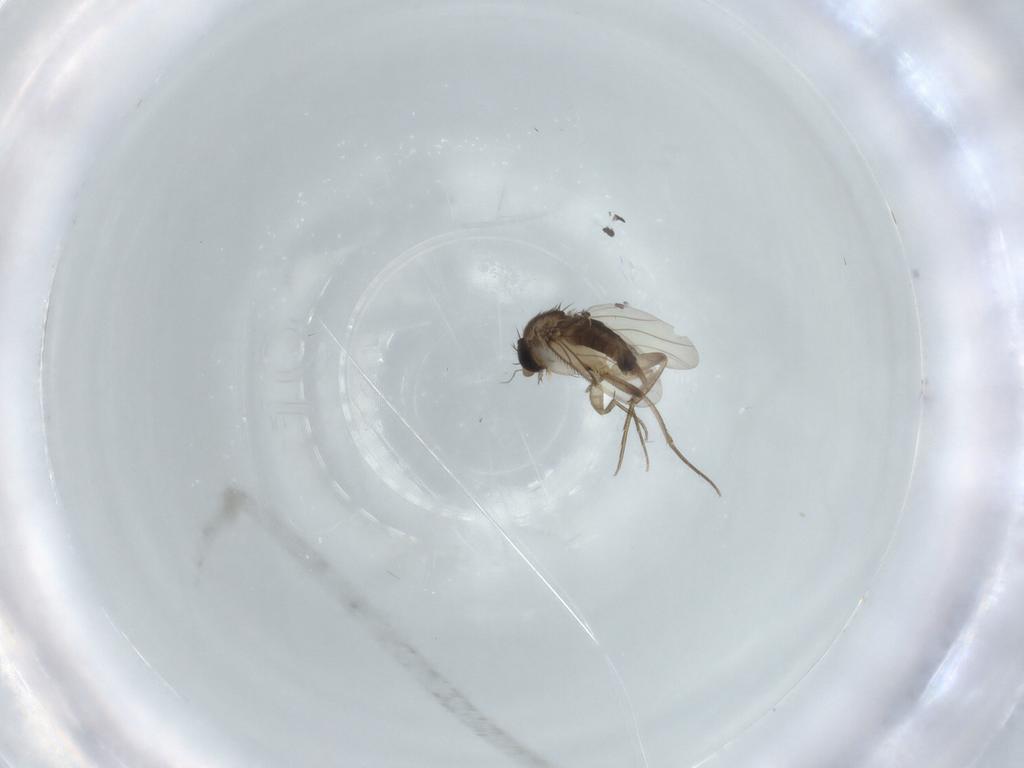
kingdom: Animalia
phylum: Arthropoda
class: Insecta
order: Diptera
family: Phoridae
